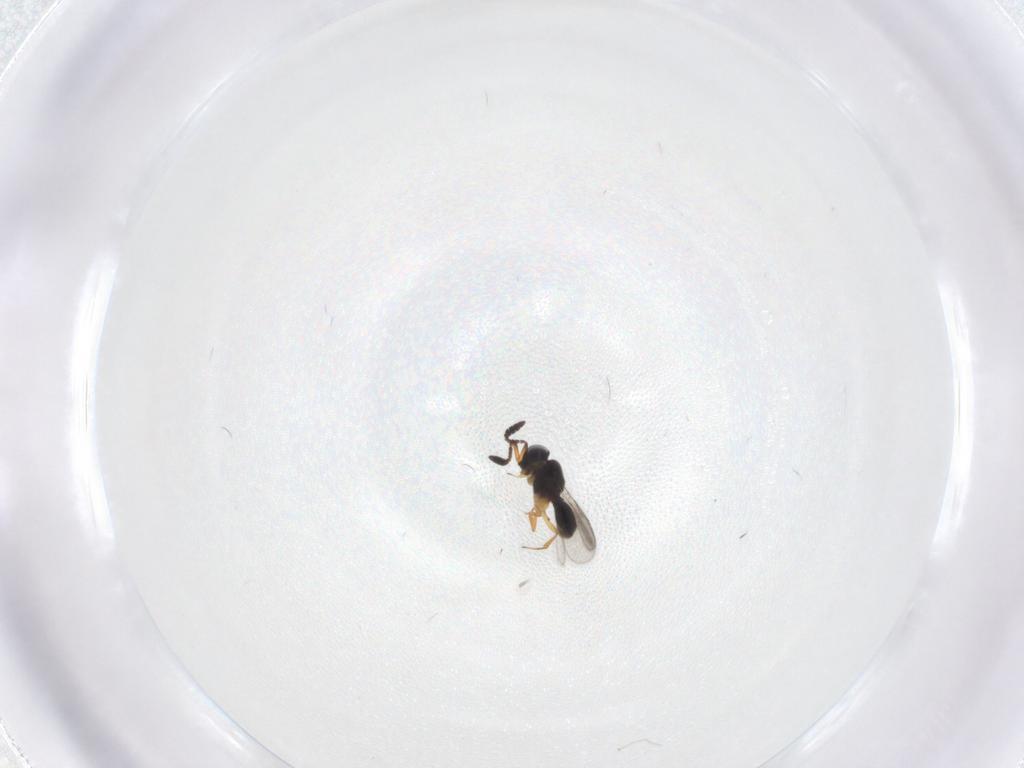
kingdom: Animalia
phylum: Arthropoda
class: Insecta
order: Hymenoptera
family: Scelionidae
